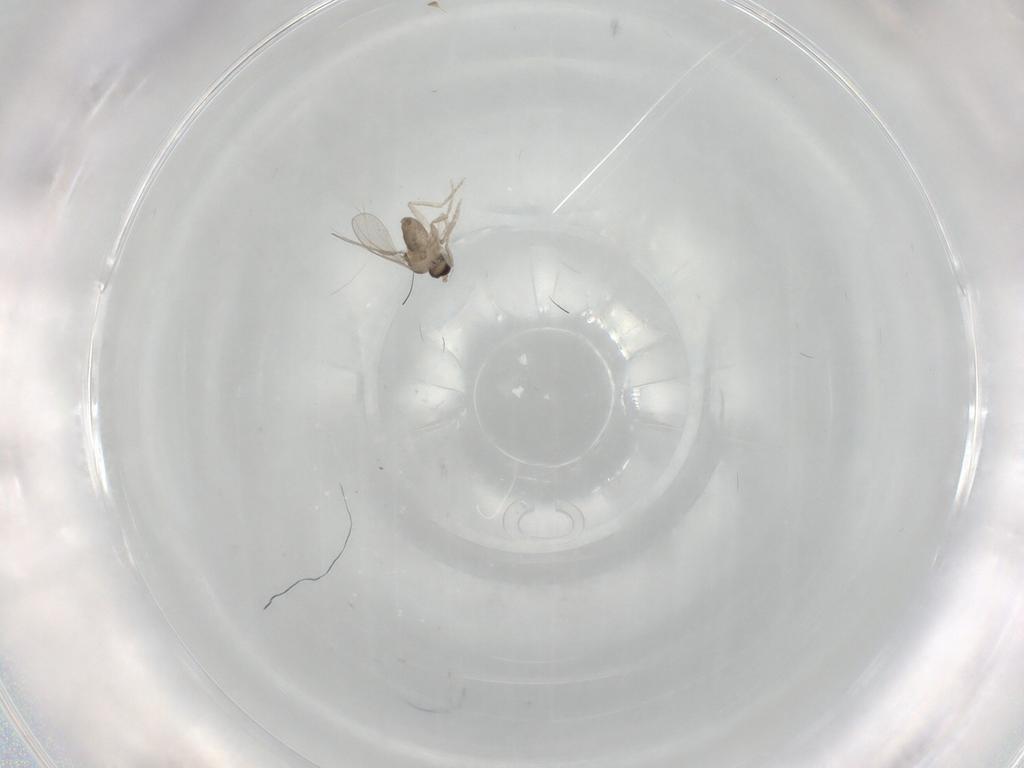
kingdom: Animalia
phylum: Arthropoda
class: Insecta
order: Diptera
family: Cecidomyiidae
